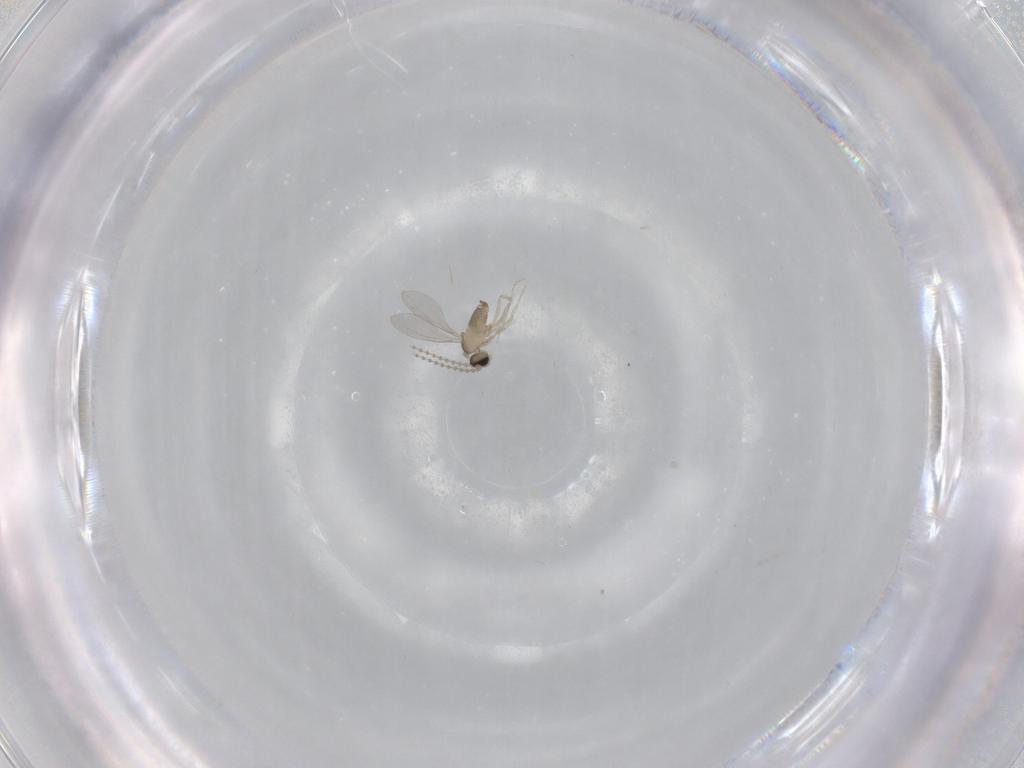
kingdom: Animalia
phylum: Arthropoda
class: Insecta
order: Diptera
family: Cecidomyiidae
